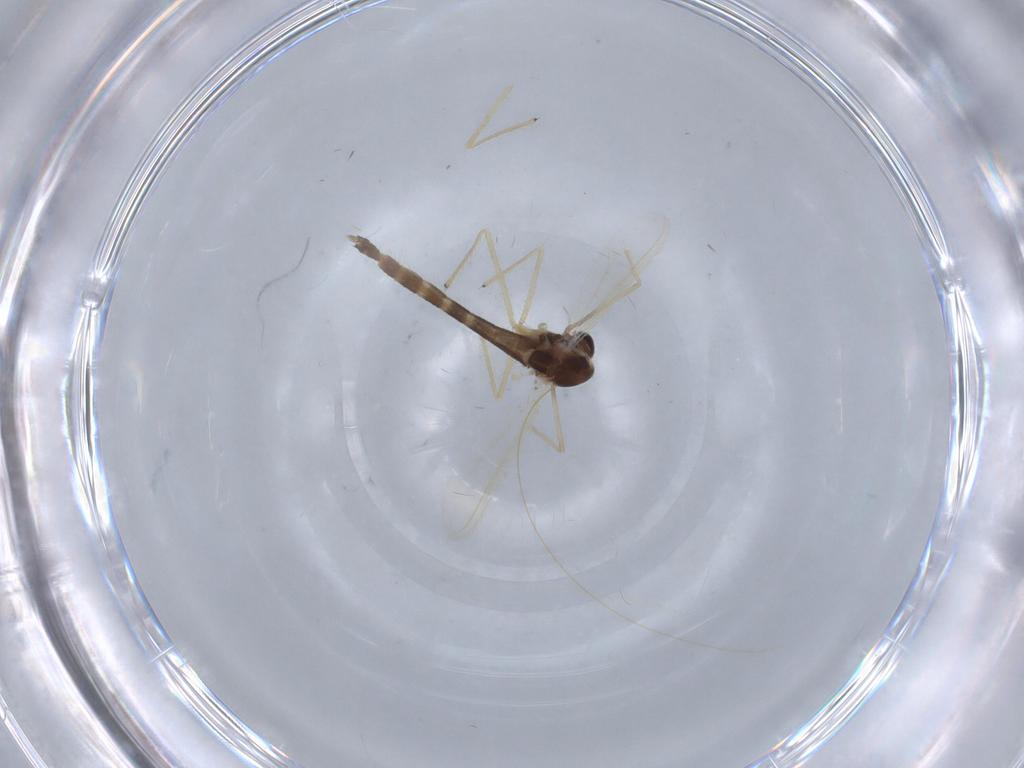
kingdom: Animalia
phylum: Arthropoda
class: Insecta
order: Diptera
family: Chironomidae
